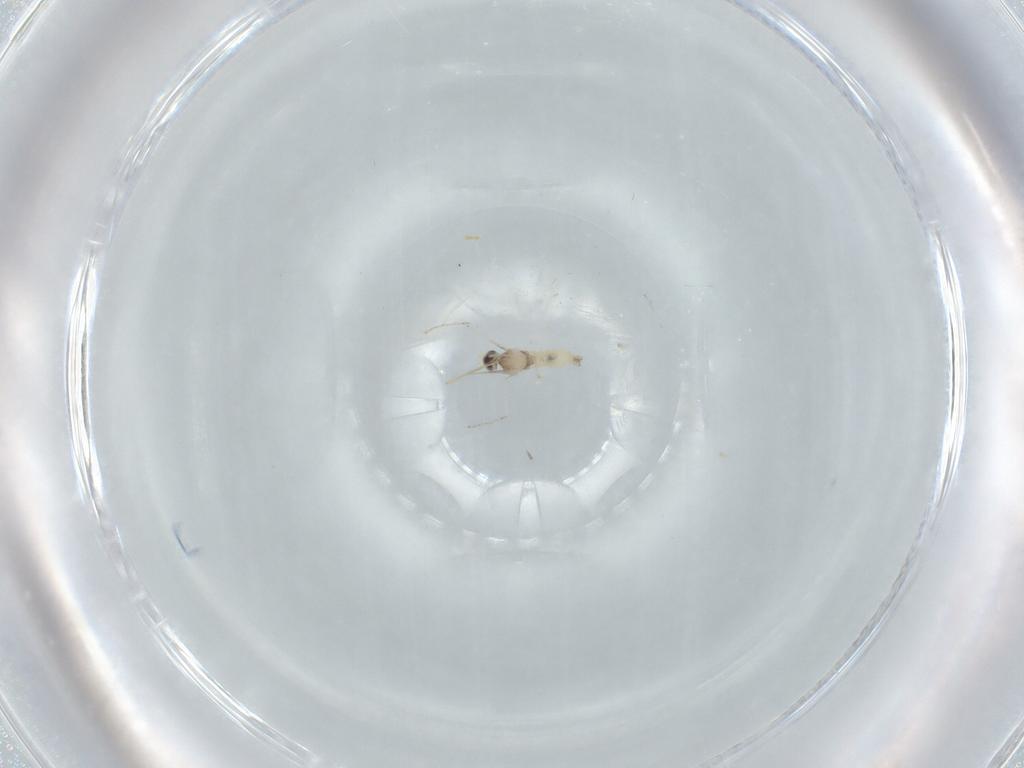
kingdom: Animalia
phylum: Arthropoda
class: Insecta
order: Diptera
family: Cecidomyiidae
